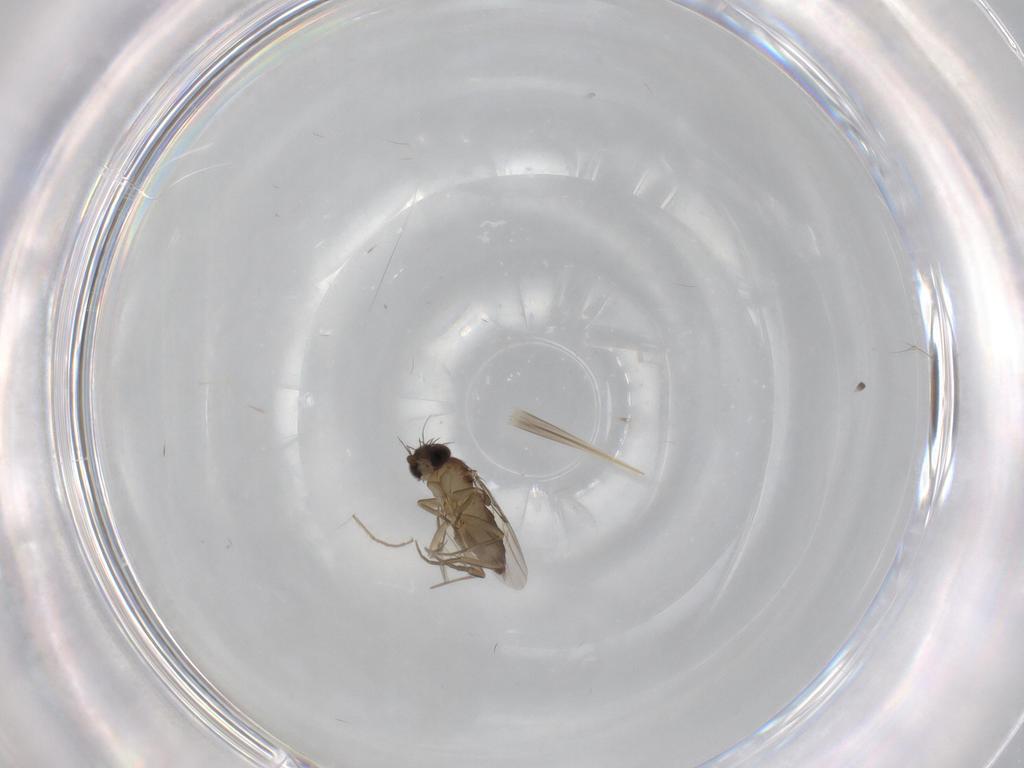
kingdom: Animalia
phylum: Arthropoda
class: Insecta
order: Diptera
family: Phoridae
